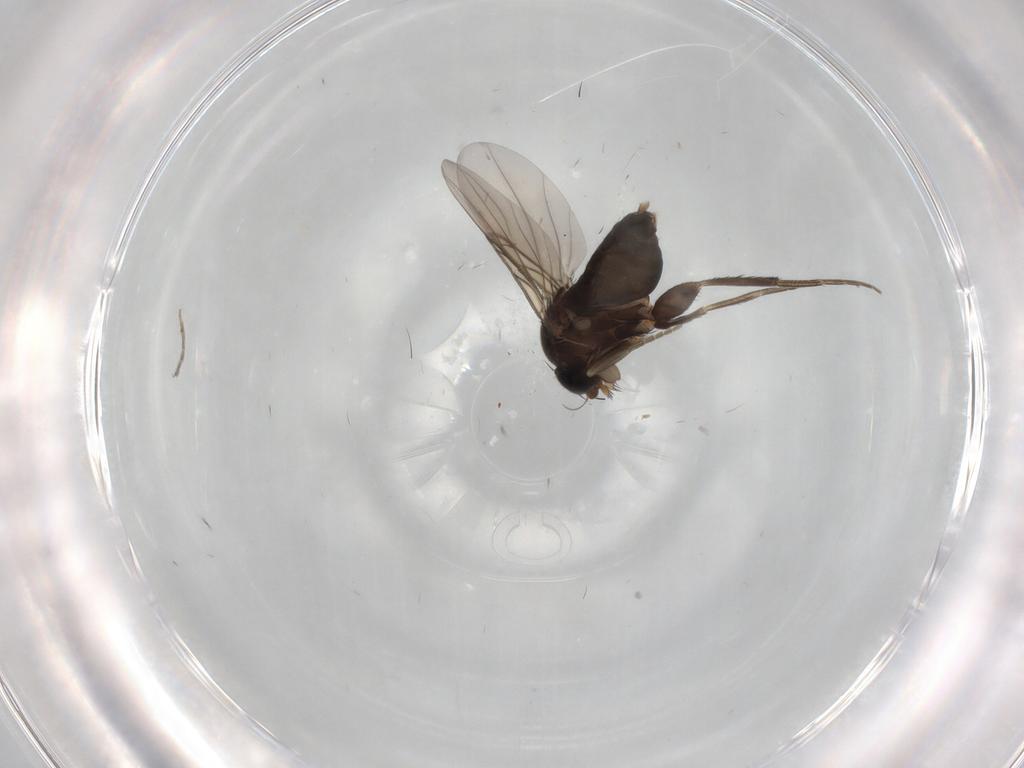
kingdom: Animalia
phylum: Arthropoda
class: Insecta
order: Diptera
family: Phoridae
